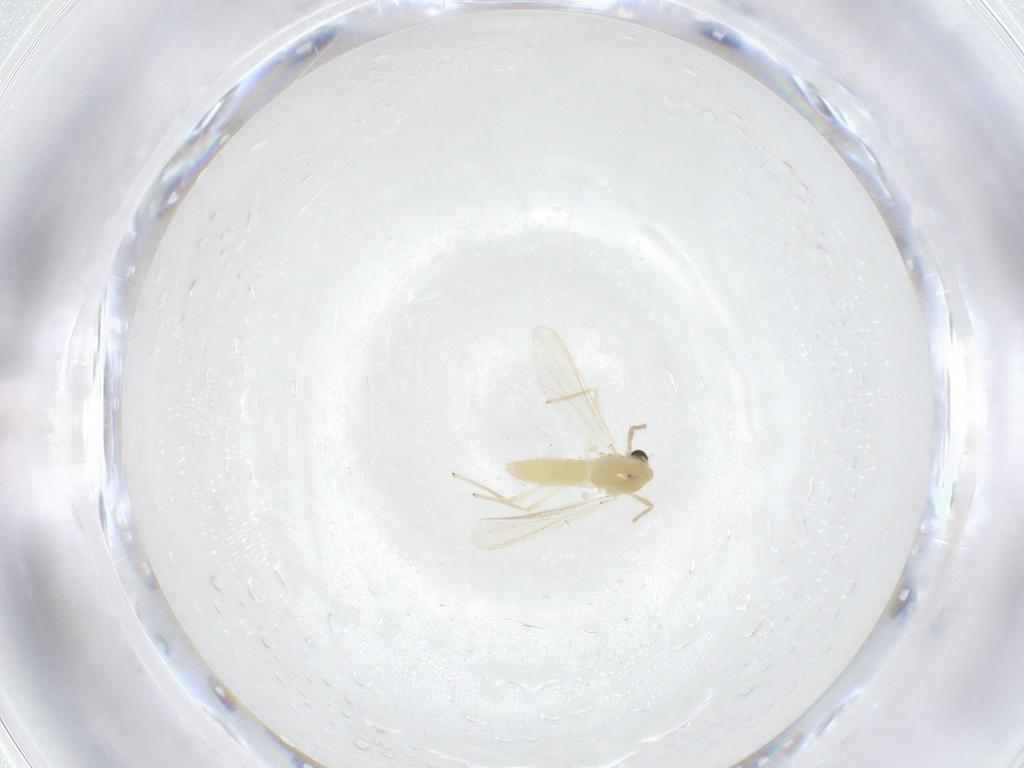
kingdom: Animalia
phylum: Arthropoda
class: Insecta
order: Diptera
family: Chironomidae
